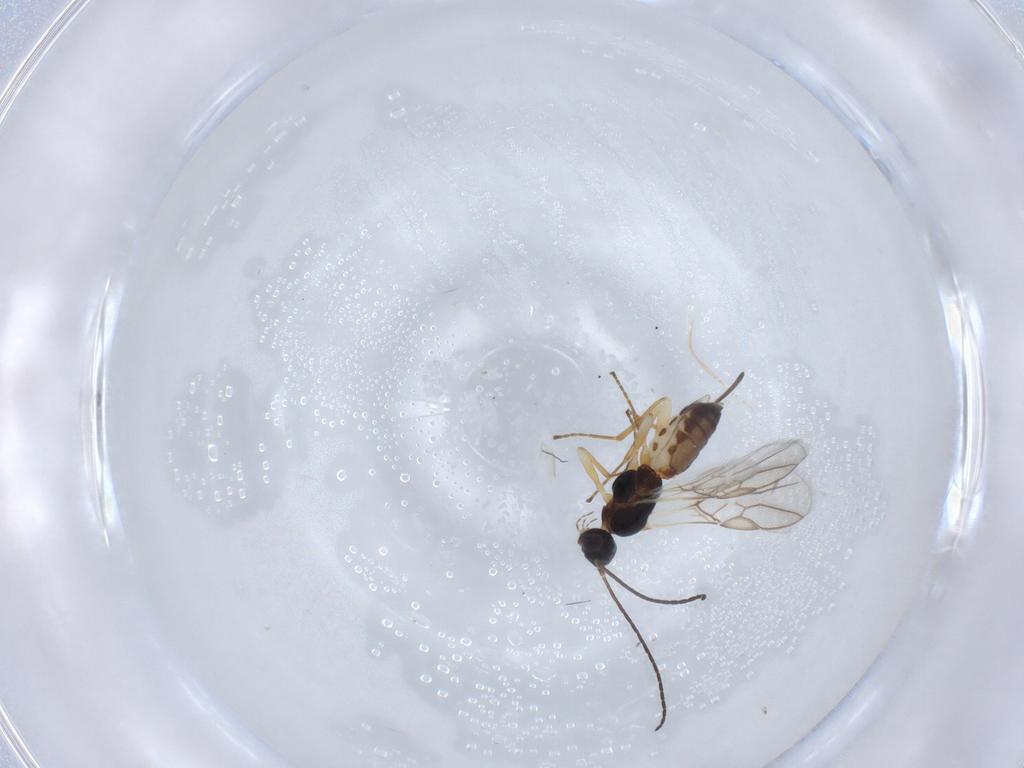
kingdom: Animalia
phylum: Arthropoda
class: Insecta
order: Hymenoptera
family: Braconidae
